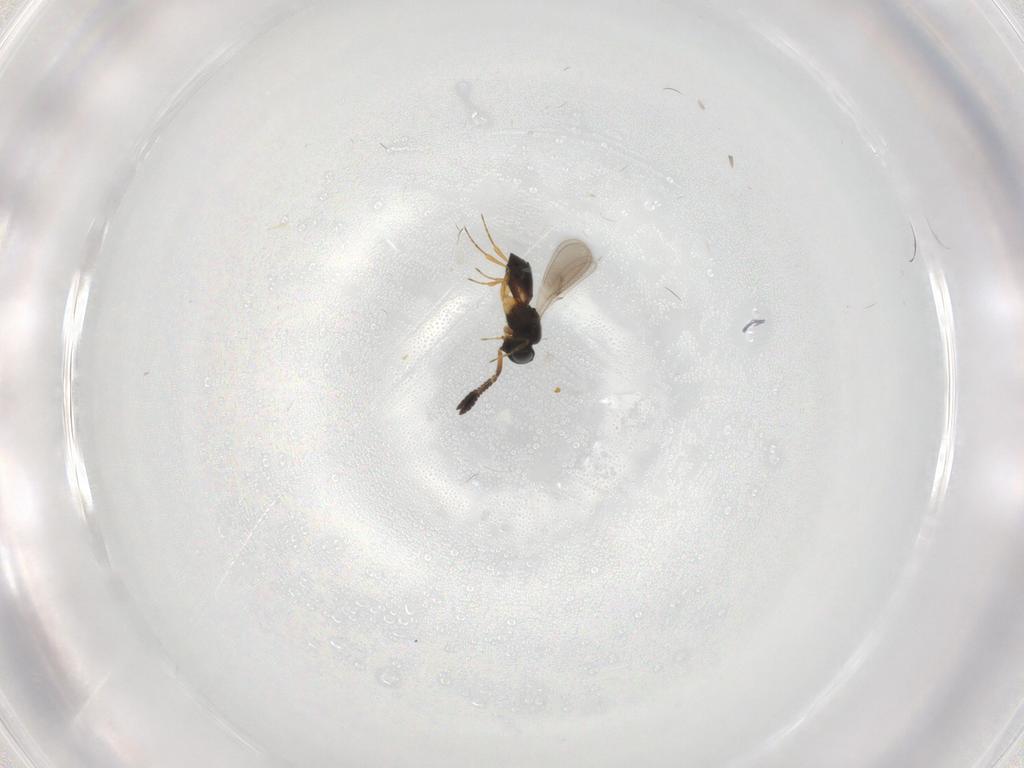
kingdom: Animalia
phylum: Arthropoda
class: Insecta
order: Hymenoptera
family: Scelionidae
